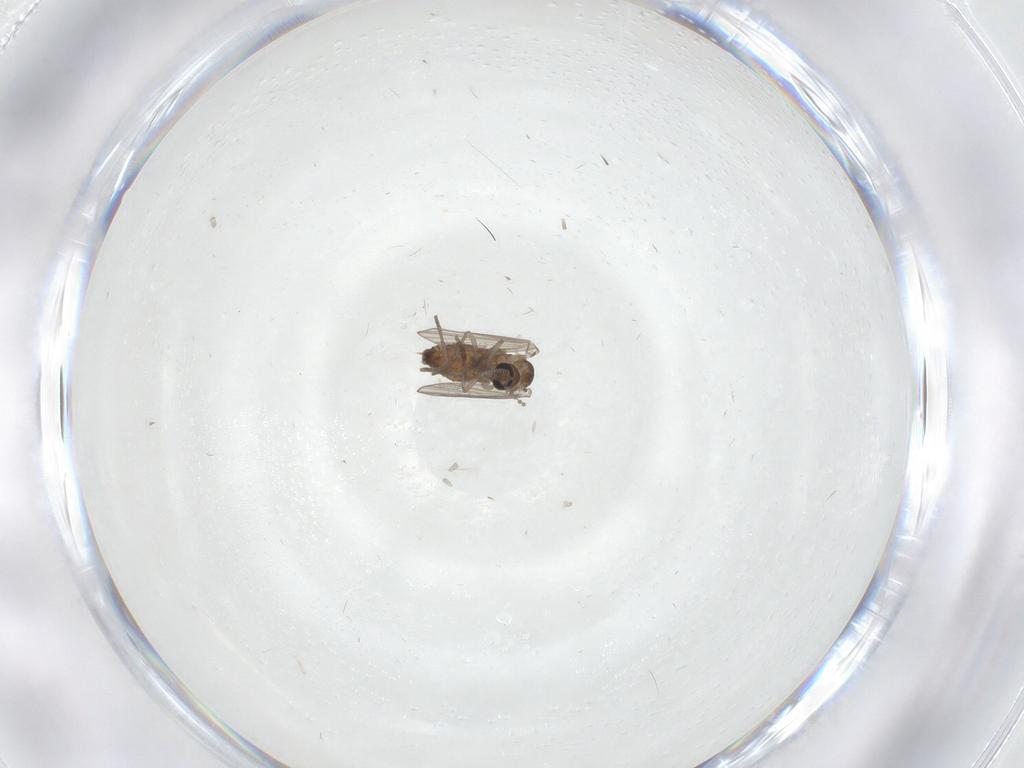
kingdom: Animalia
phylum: Arthropoda
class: Insecta
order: Diptera
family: Psychodidae
